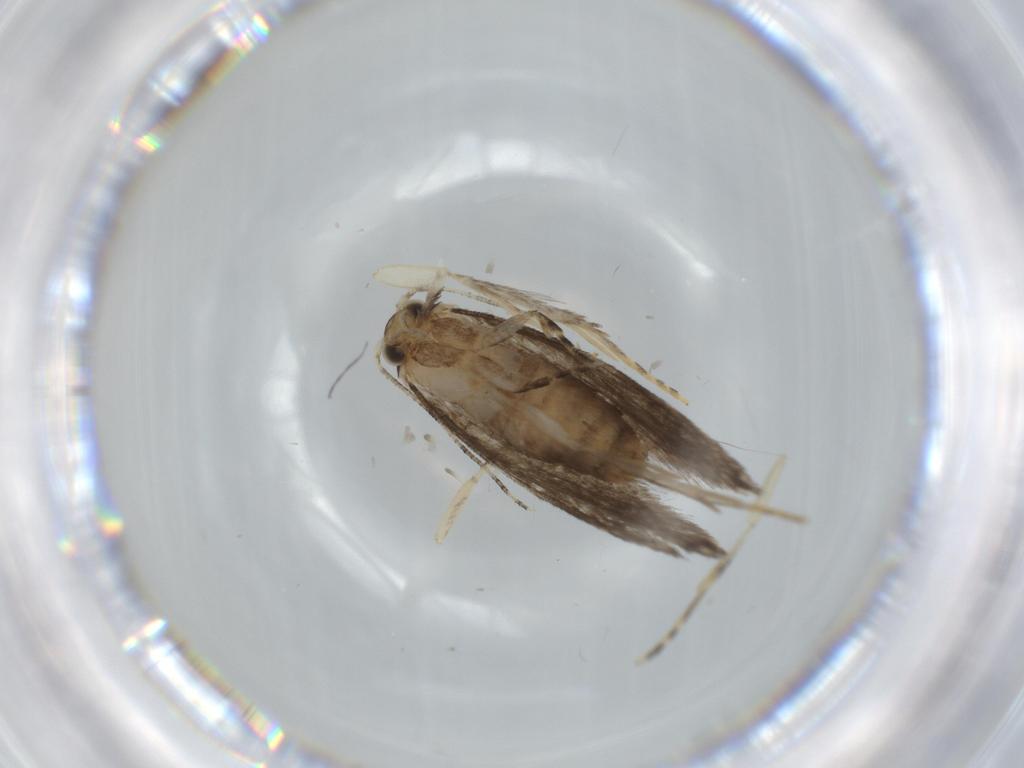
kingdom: Animalia
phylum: Arthropoda
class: Insecta
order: Lepidoptera
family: Tineidae
